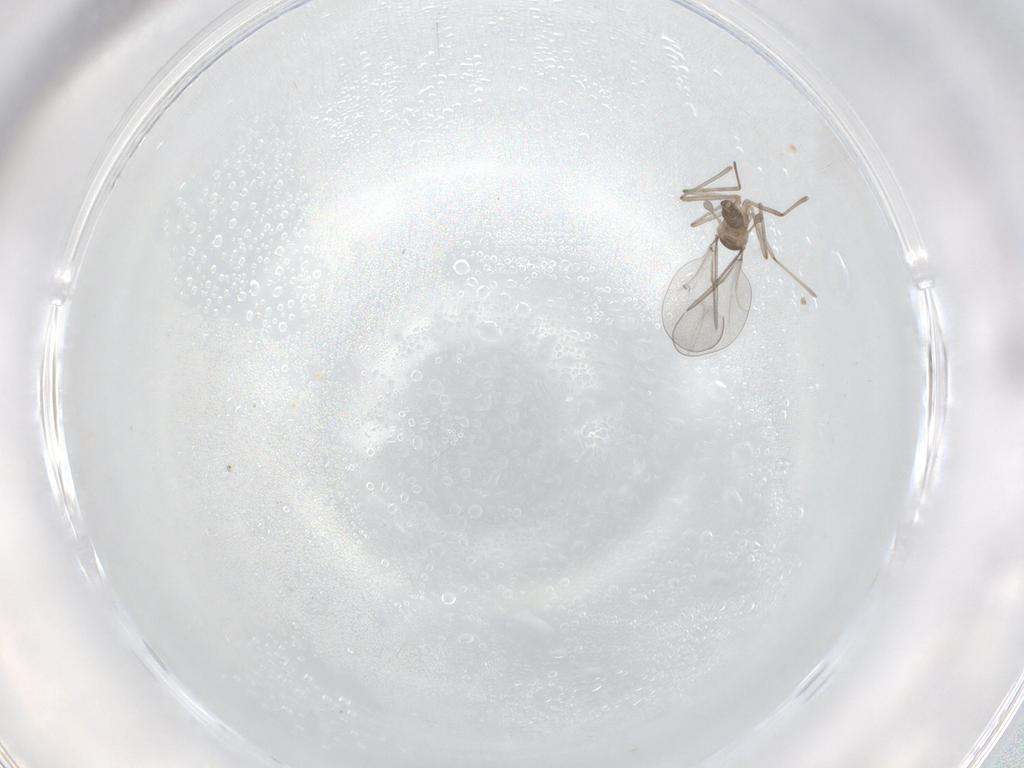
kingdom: Animalia
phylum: Arthropoda
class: Insecta
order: Diptera
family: Cecidomyiidae
